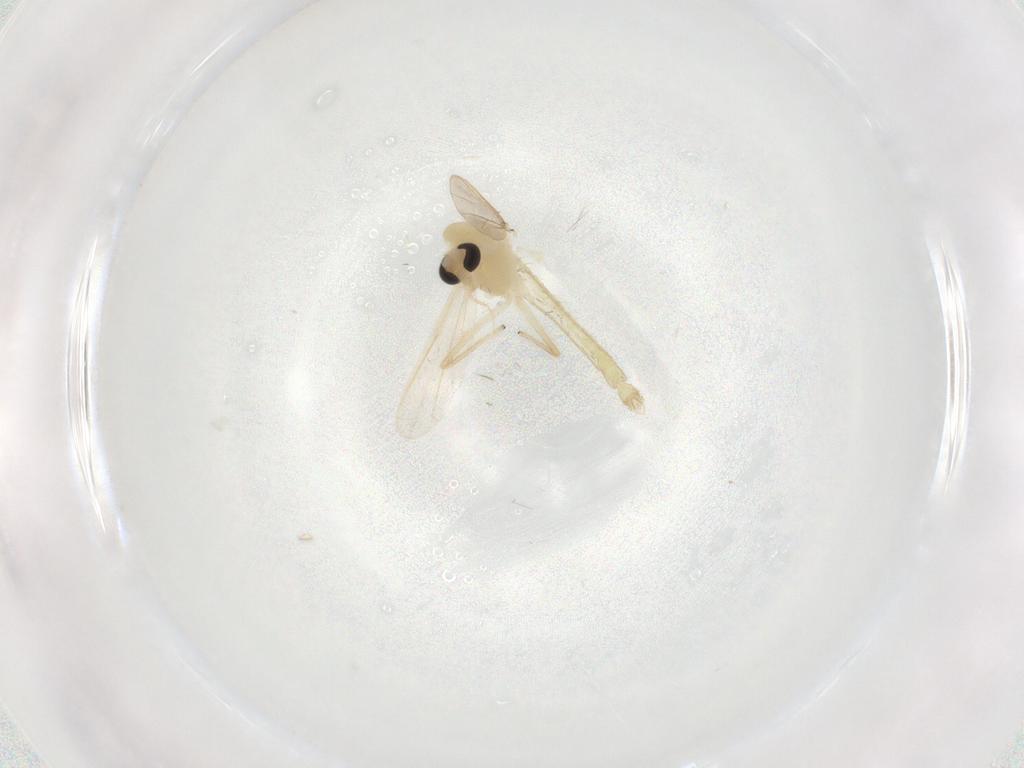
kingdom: Animalia
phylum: Arthropoda
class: Insecta
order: Diptera
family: Chironomidae
